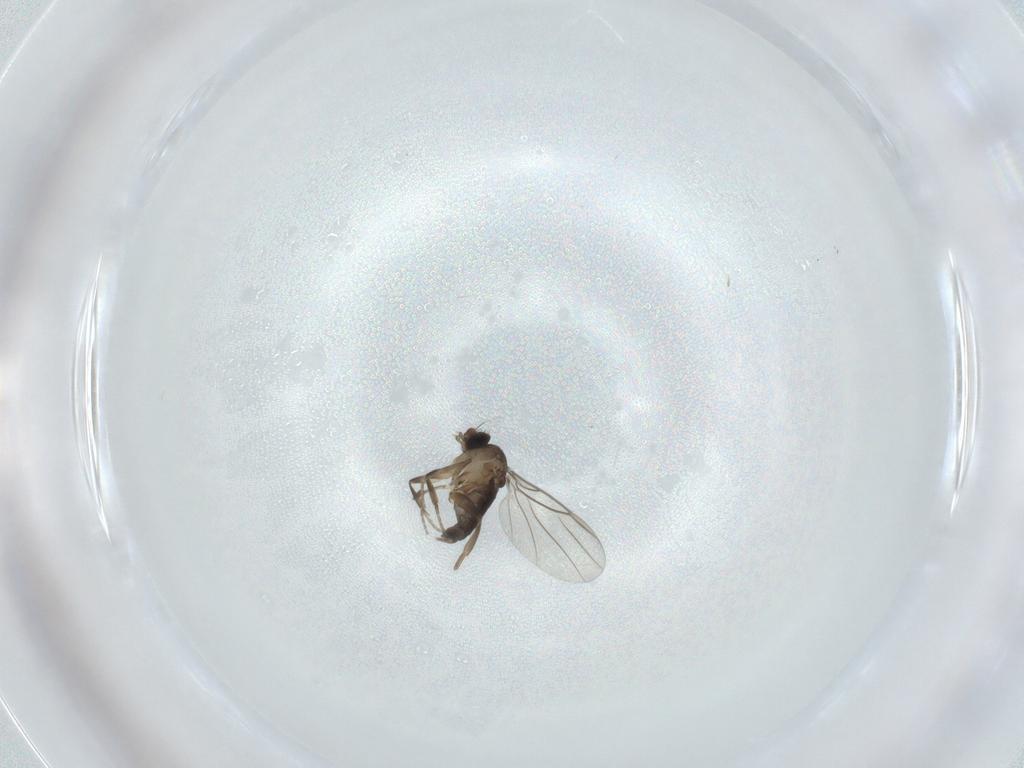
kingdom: Animalia
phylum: Arthropoda
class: Insecta
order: Diptera
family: Phoridae
